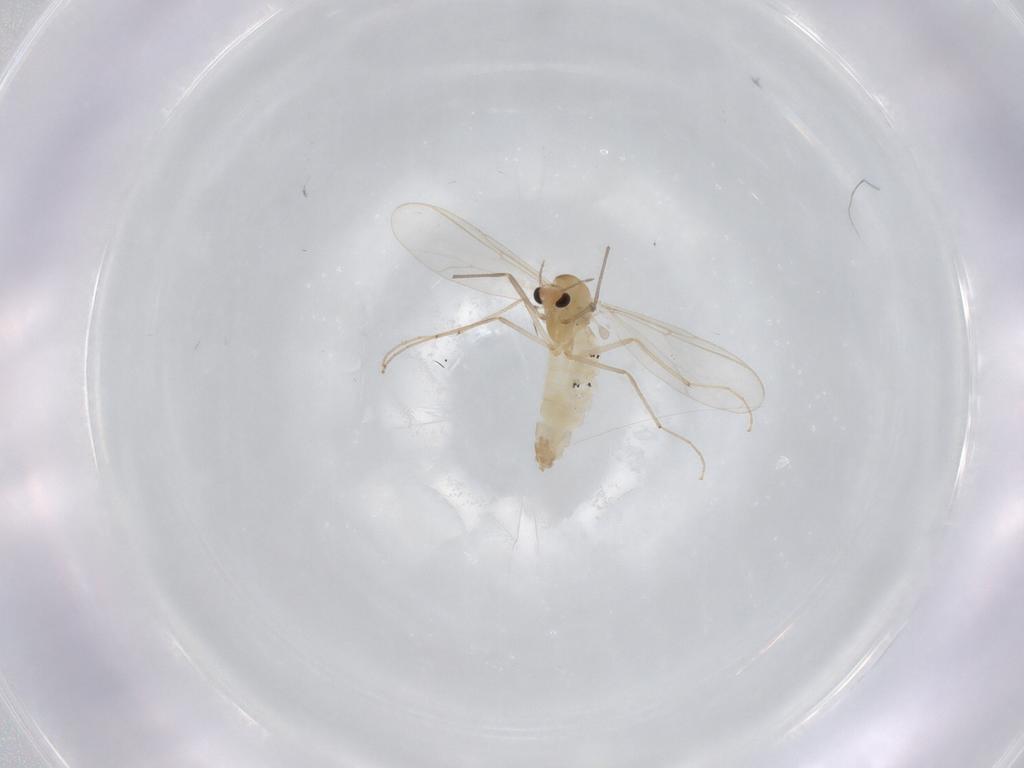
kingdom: Animalia
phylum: Arthropoda
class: Insecta
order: Diptera
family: Chironomidae
